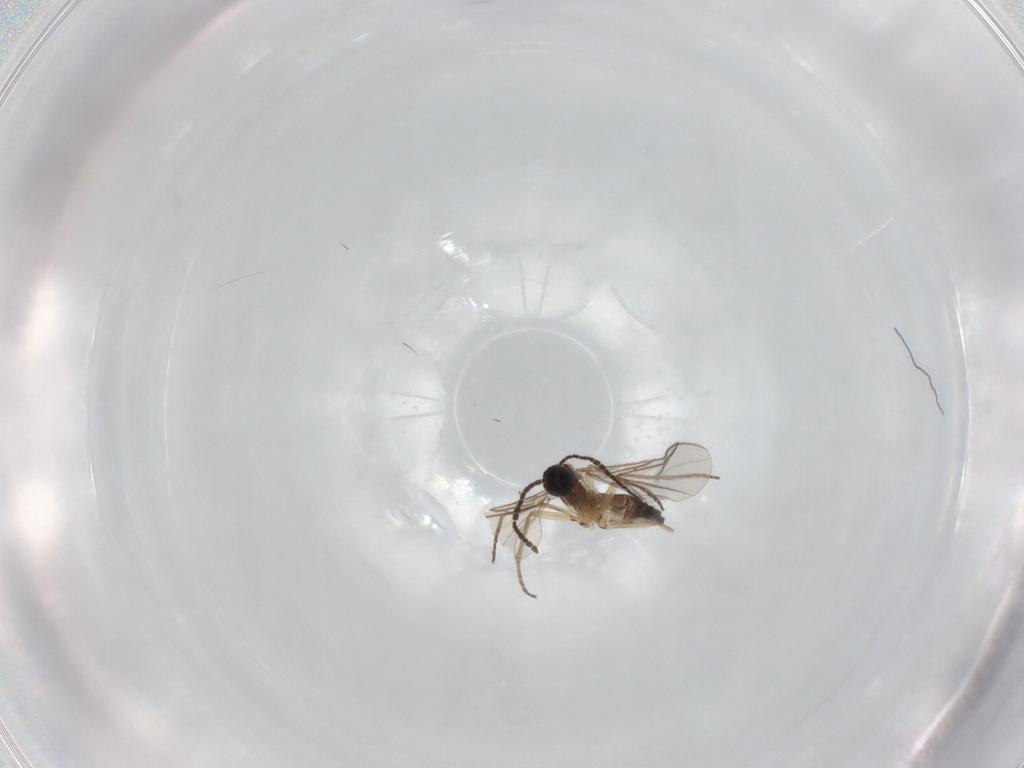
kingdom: Animalia
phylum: Arthropoda
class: Insecta
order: Diptera
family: Sciaridae
